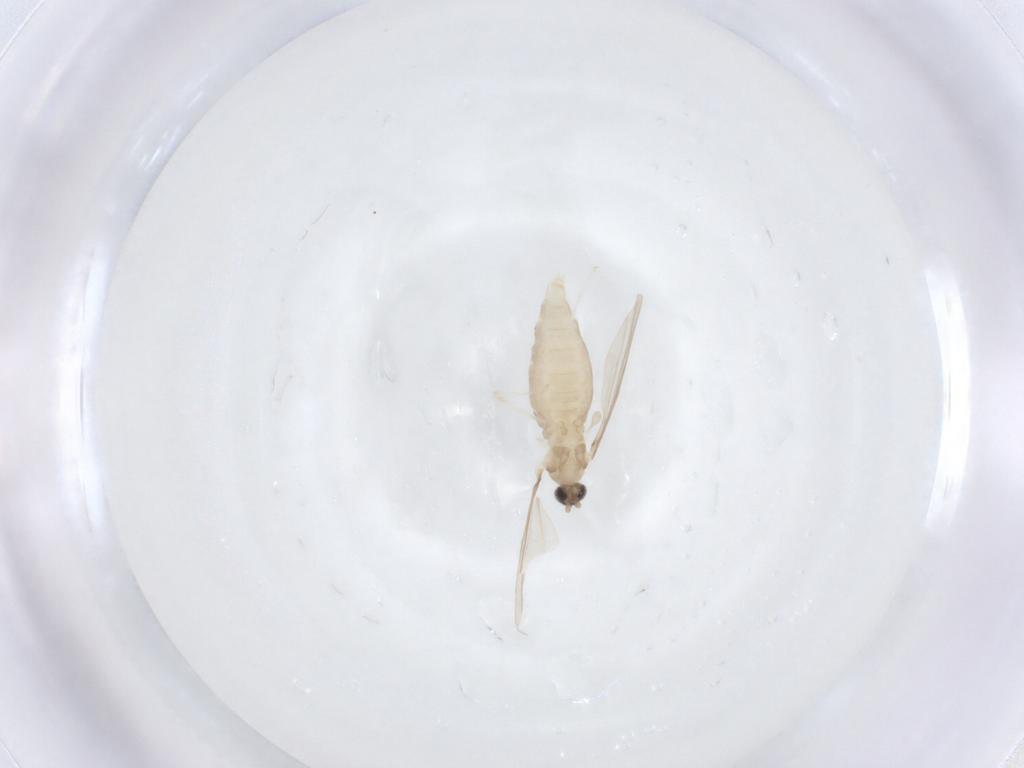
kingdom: Animalia
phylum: Arthropoda
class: Insecta
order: Diptera
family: Cecidomyiidae
